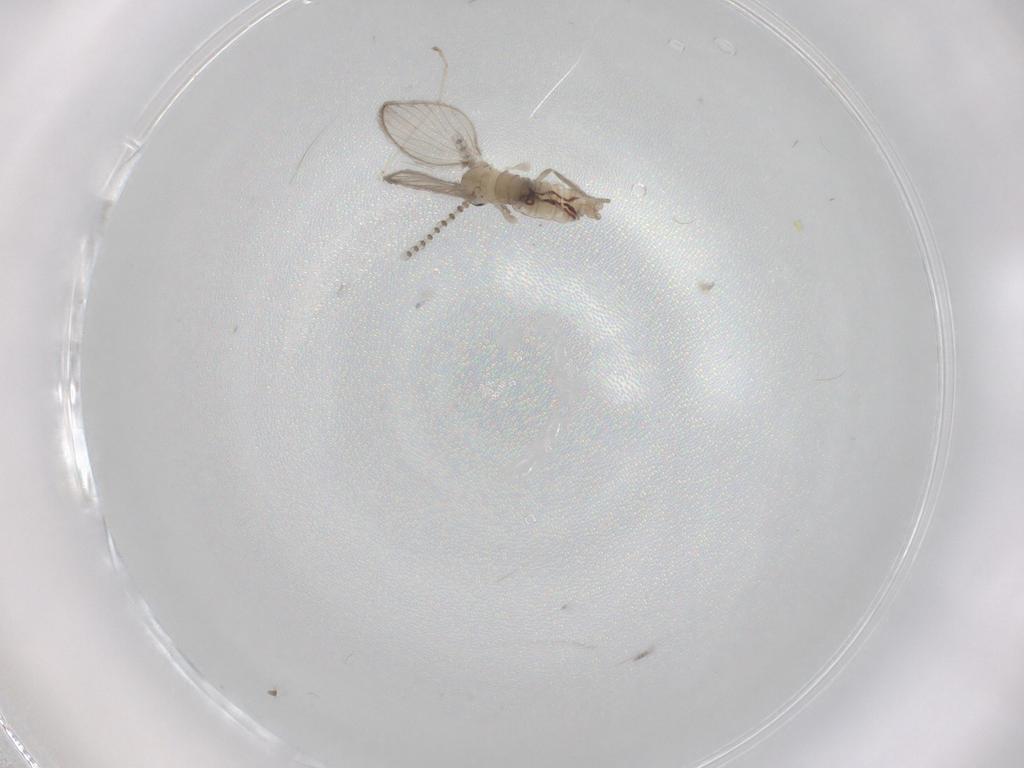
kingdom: Animalia
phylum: Arthropoda
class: Insecta
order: Diptera
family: Psychodidae
